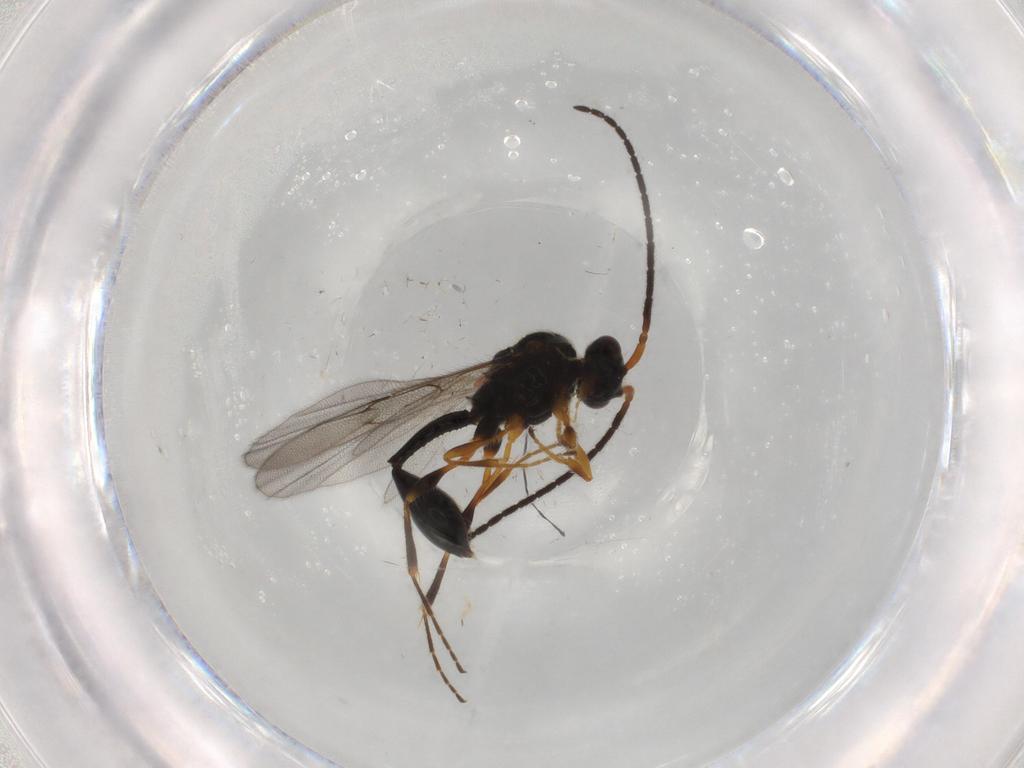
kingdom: Animalia
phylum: Arthropoda
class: Insecta
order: Hymenoptera
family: Diapriidae
